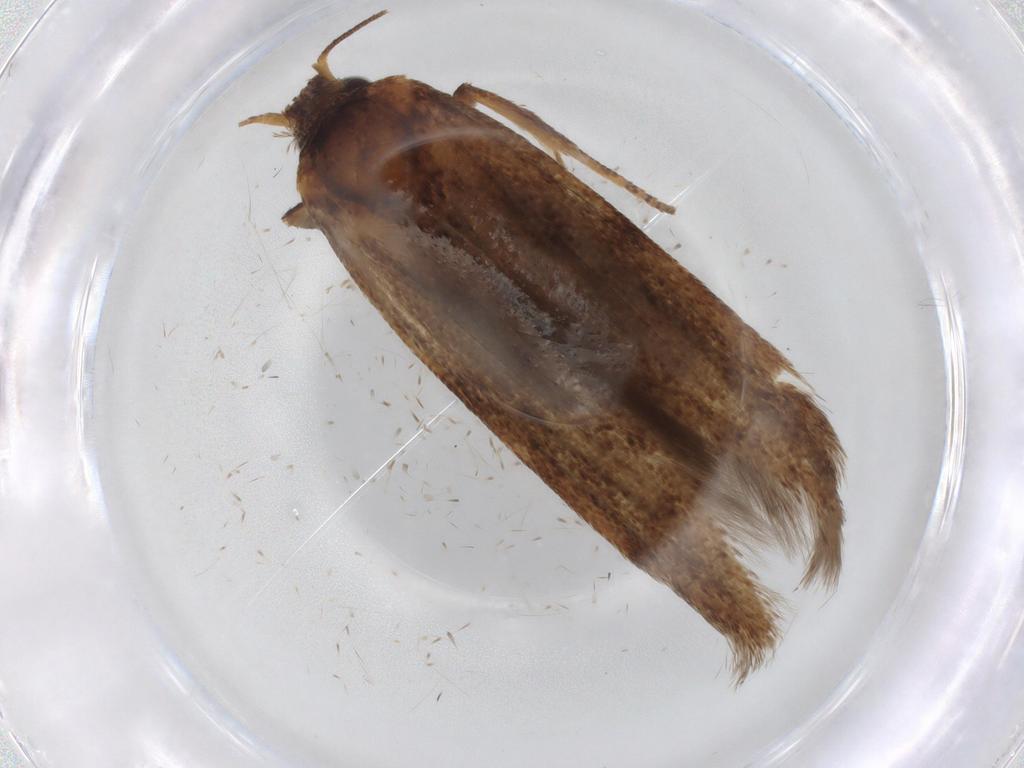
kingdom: Animalia
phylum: Arthropoda
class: Insecta
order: Lepidoptera
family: Blastobasidae
